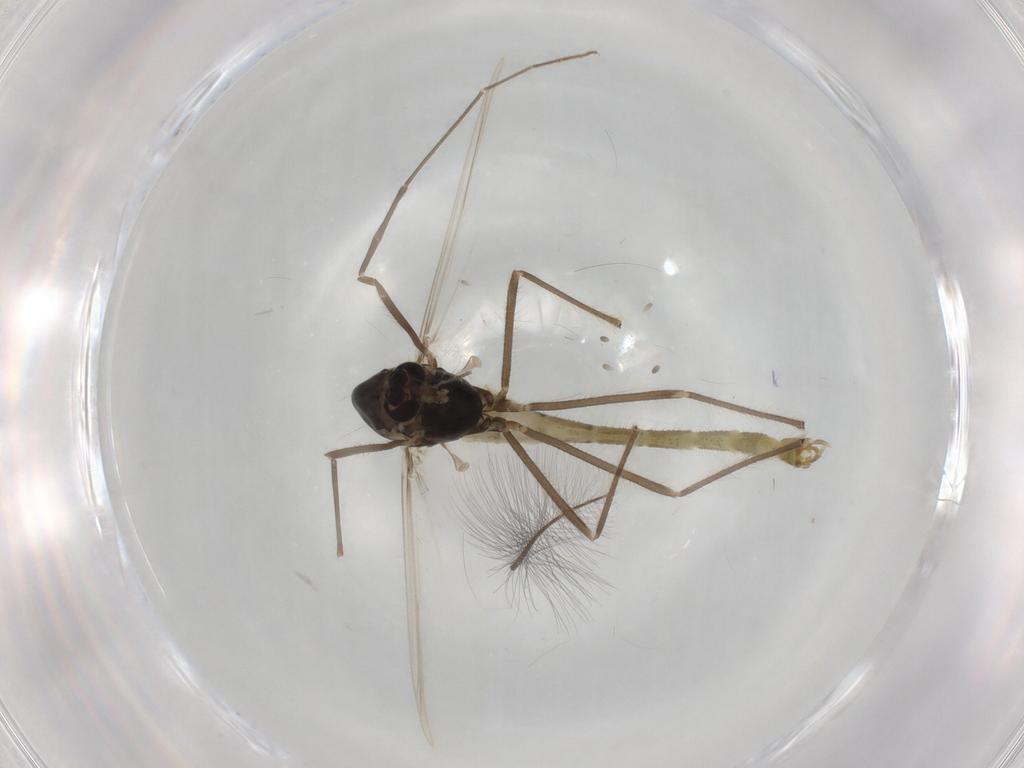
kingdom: Animalia
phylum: Arthropoda
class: Insecta
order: Diptera
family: Chironomidae
